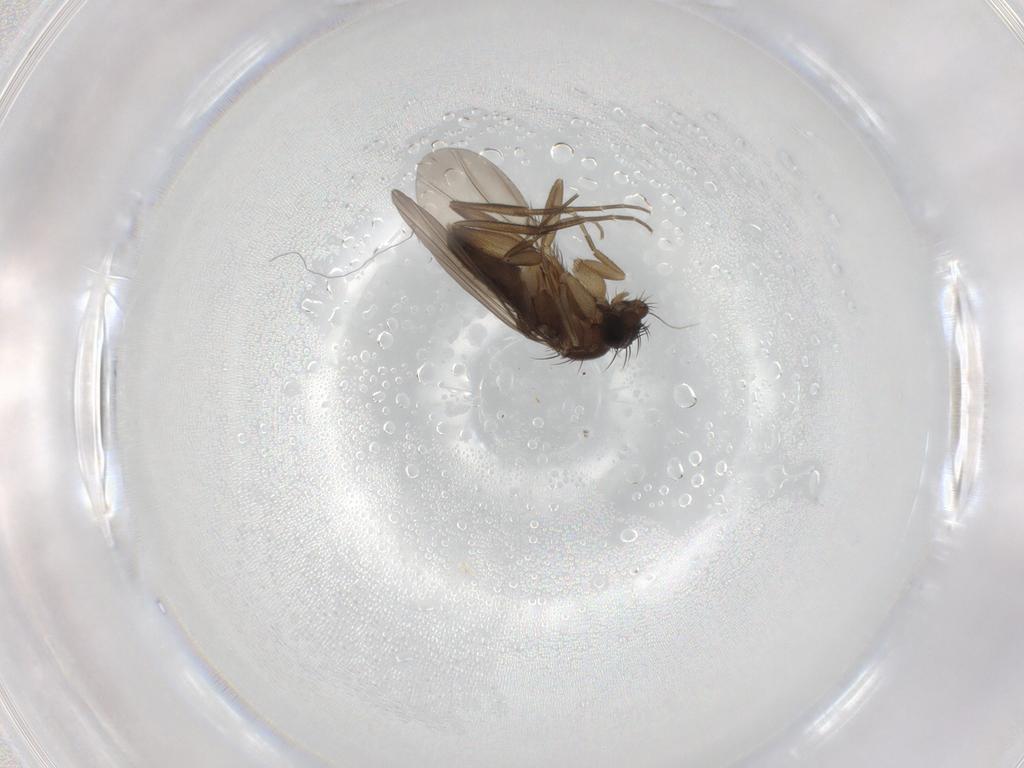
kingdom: Animalia
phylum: Arthropoda
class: Insecta
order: Diptera
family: Phoridae
